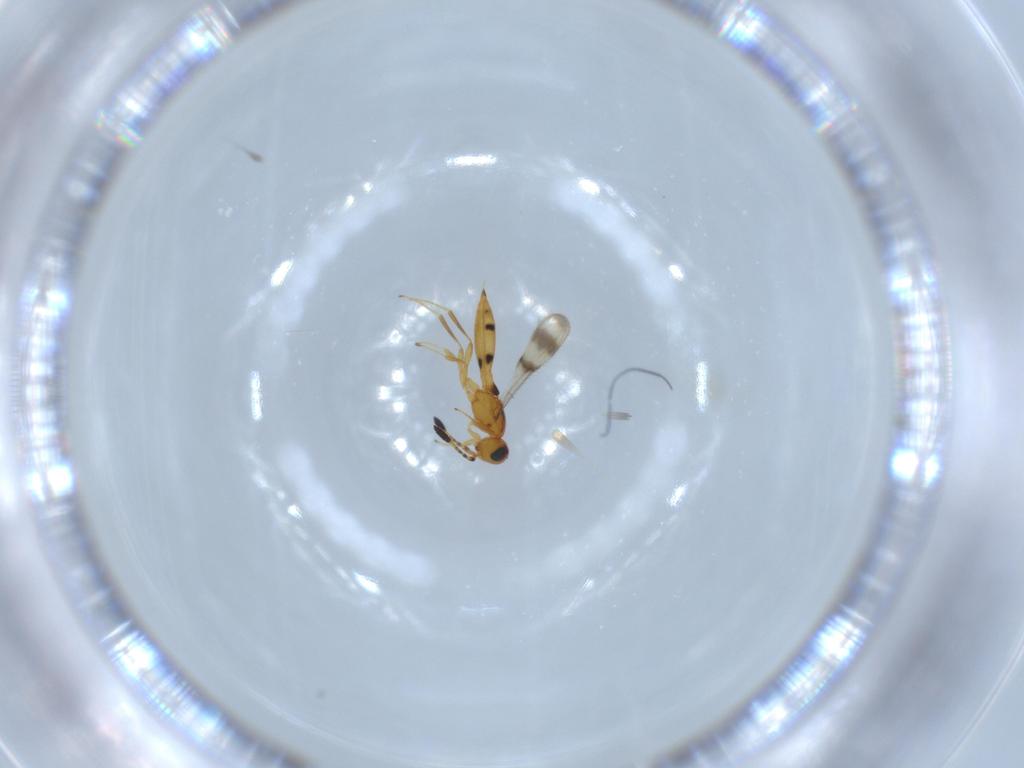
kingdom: Animalia
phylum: Arthropoda
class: Insecta
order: Hymenoptera
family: Scelionidae
